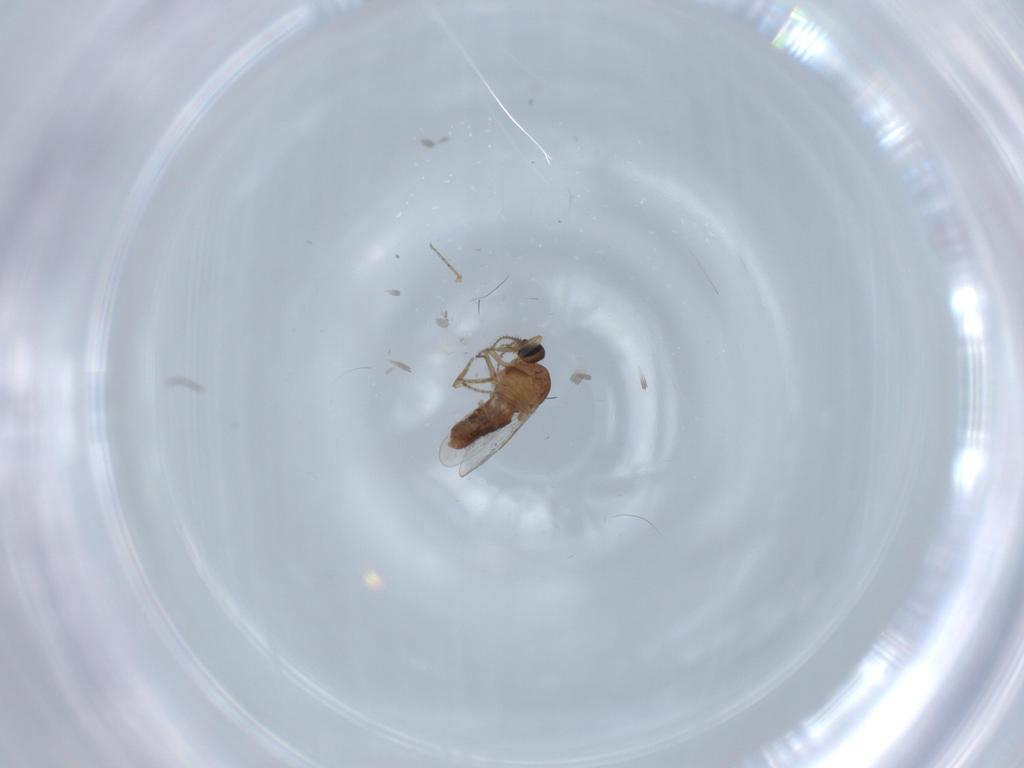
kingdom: Animalia
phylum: Arthropoda
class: Insecta
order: Diptera
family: Ceratopogonidae
